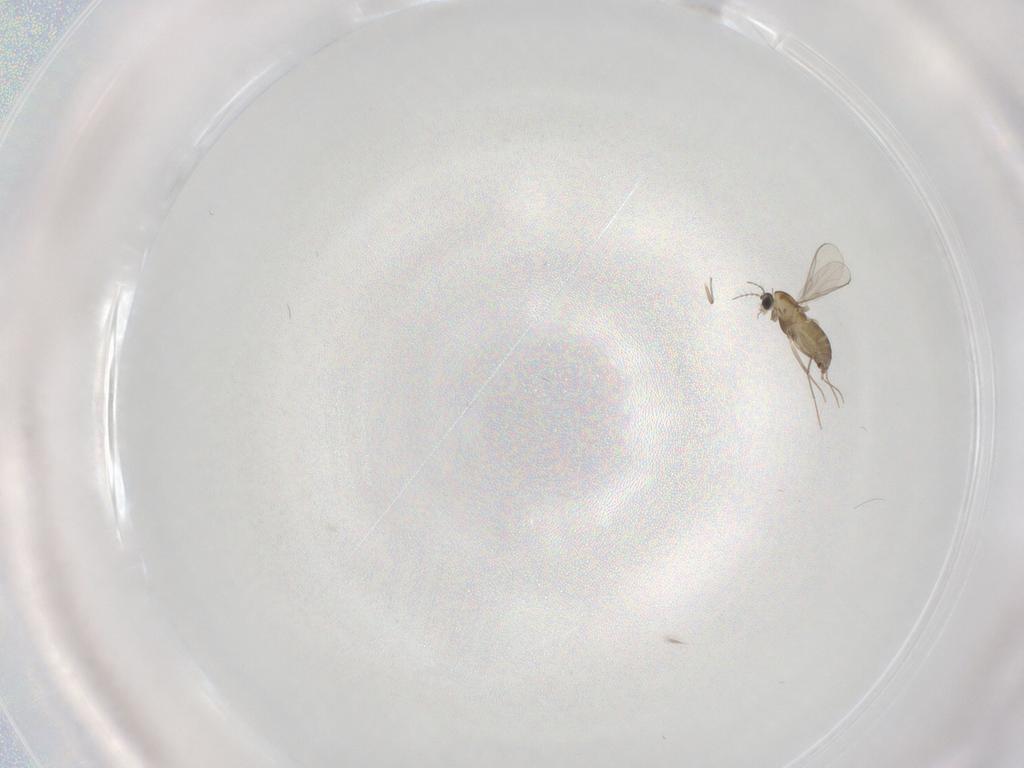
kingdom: Animalia
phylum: Arthropoda
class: Insecta
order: Diptera
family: Chironomidae
